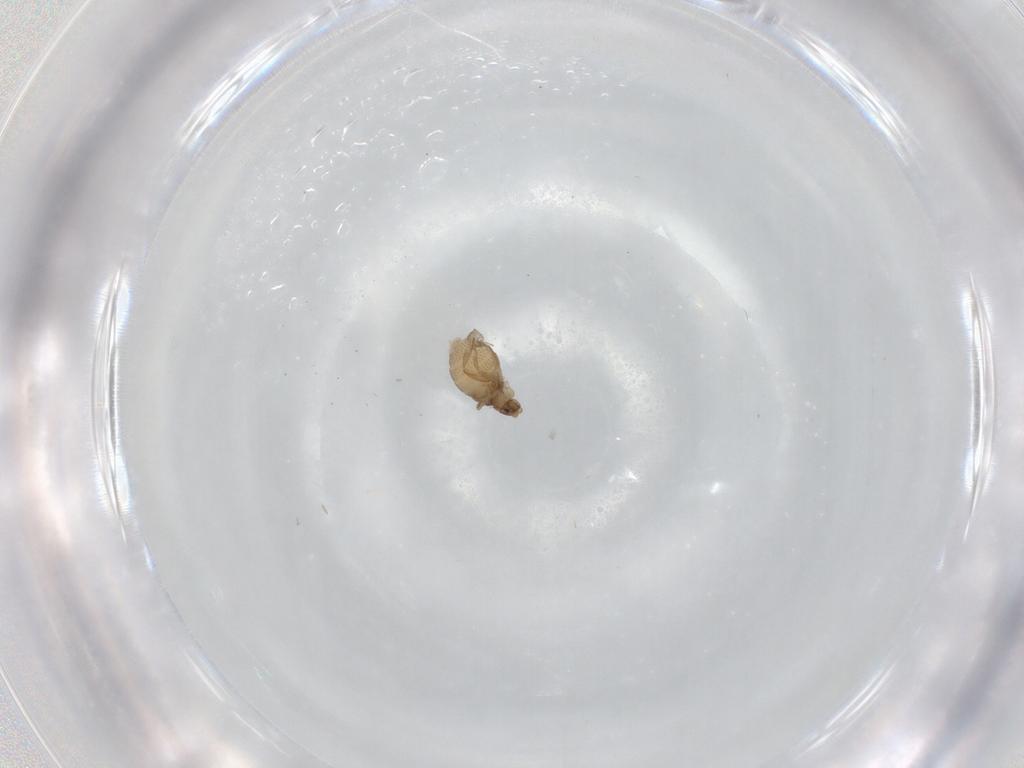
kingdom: Animalia
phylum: Arthropoda
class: Insecta
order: Diptera
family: Phoridae
